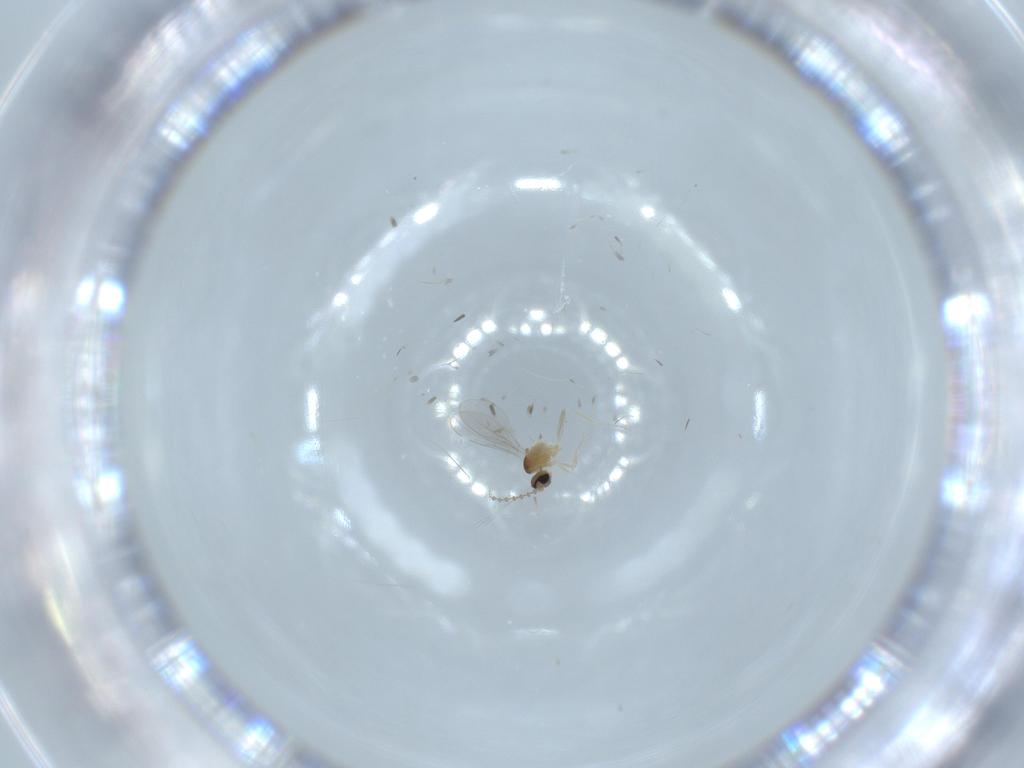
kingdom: Animalia
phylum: Arthropoda
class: Insecta
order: Diptera
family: Cecidomyiidae
